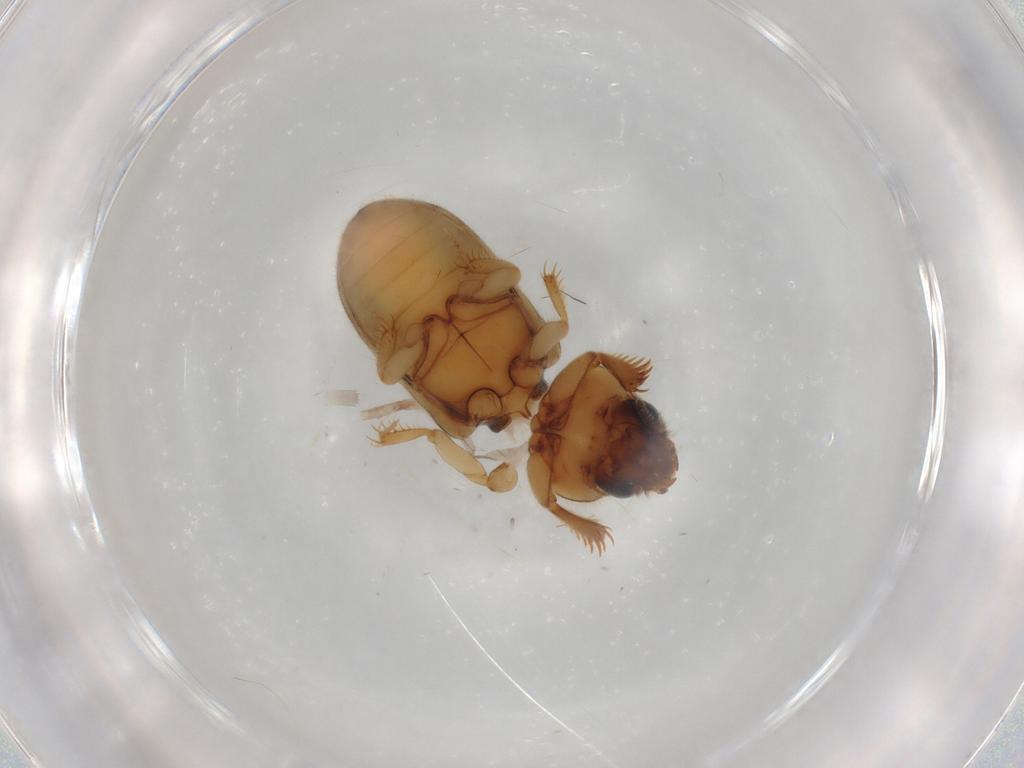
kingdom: Animalia
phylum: Arthropoda
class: Insecta
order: Coleoptera
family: Heteroceridae
